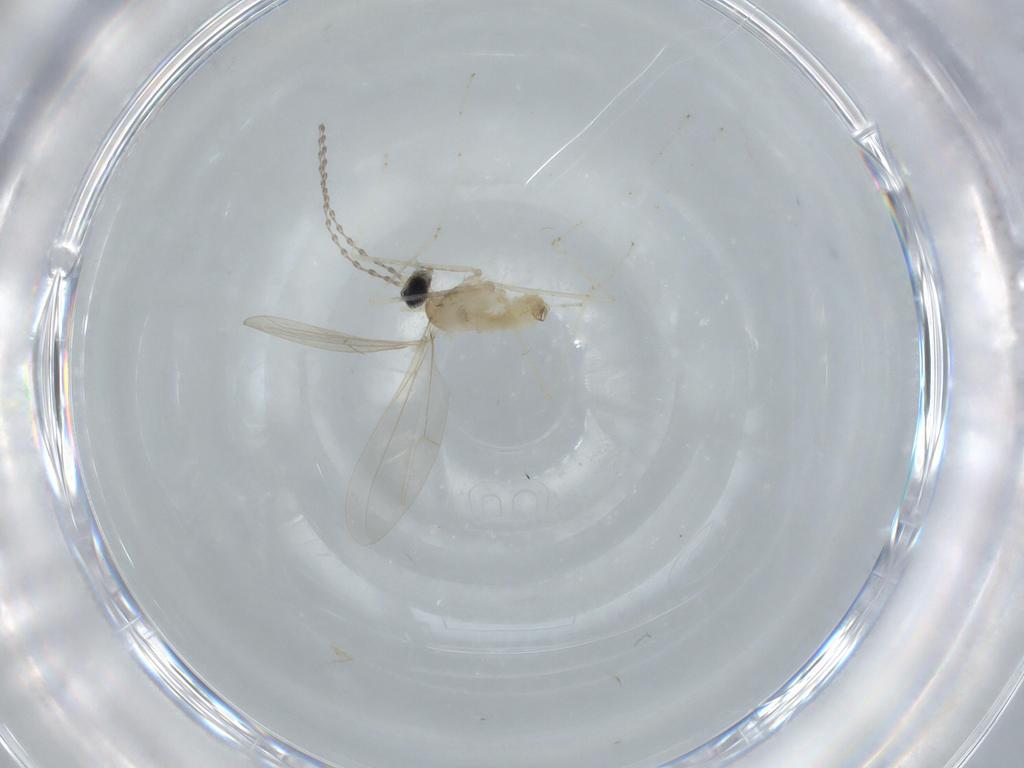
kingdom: Animalia
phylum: Arthropoda
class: Insecta
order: Diptera
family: Cecidomyiidae
